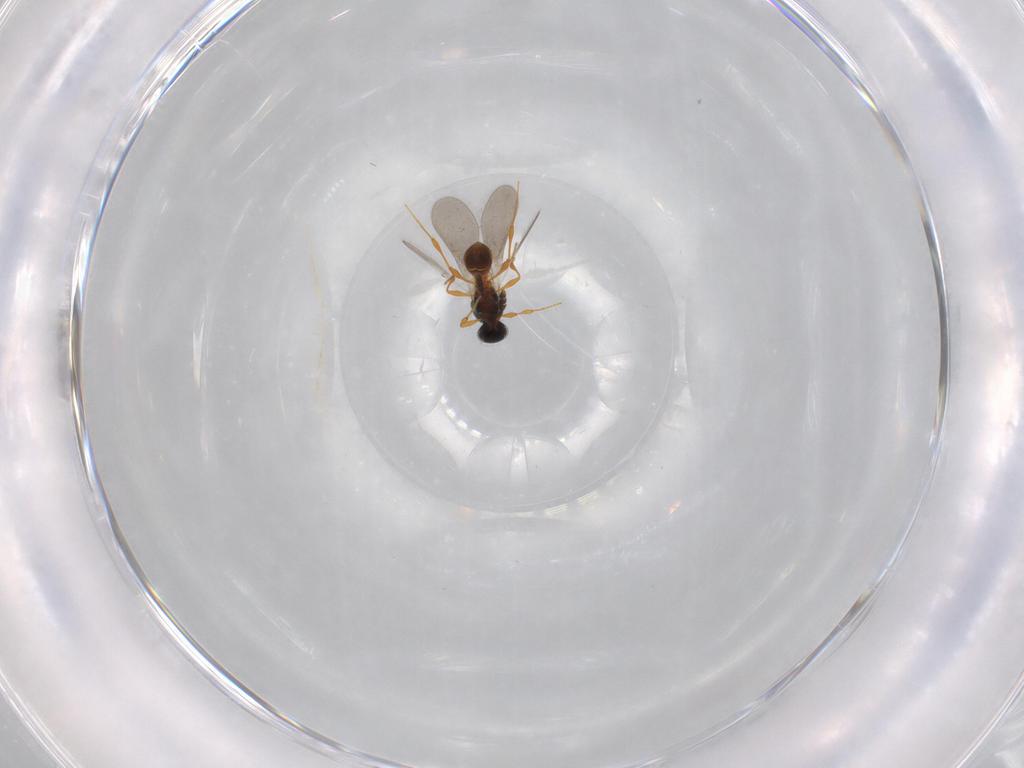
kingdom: Animalia
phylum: Arthropoda
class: Insecta
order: Hymenoptera
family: Platygastridae
